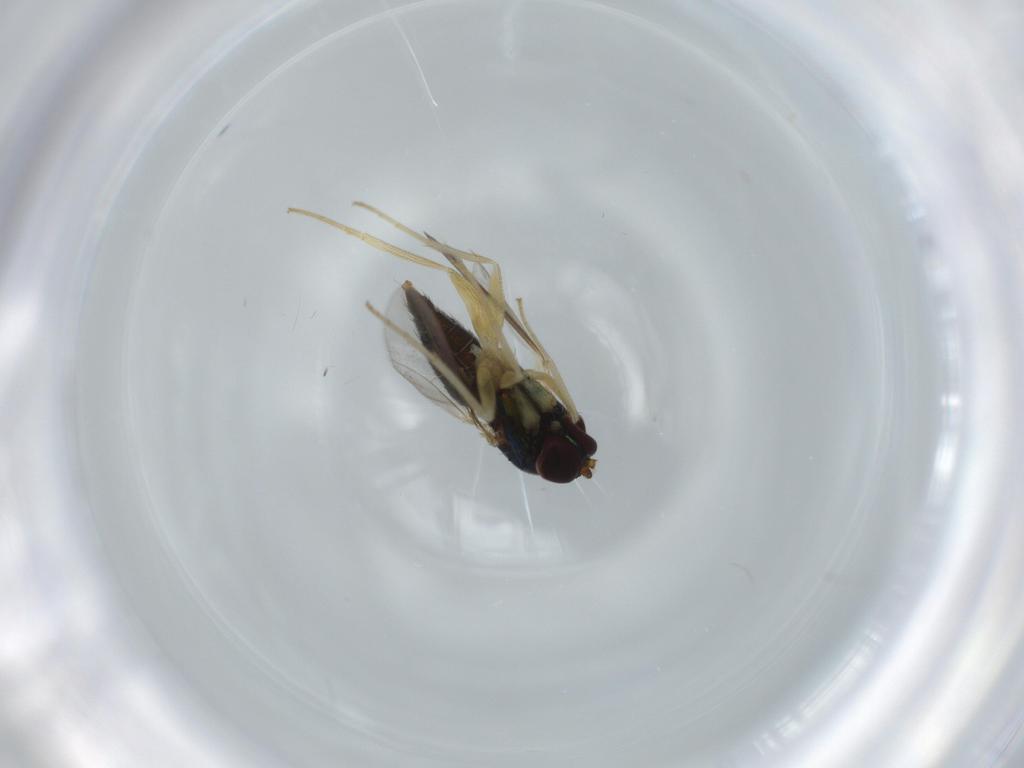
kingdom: Animalia
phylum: Arthropoda
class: Insecta
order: Diptera
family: Dolichopodidae
